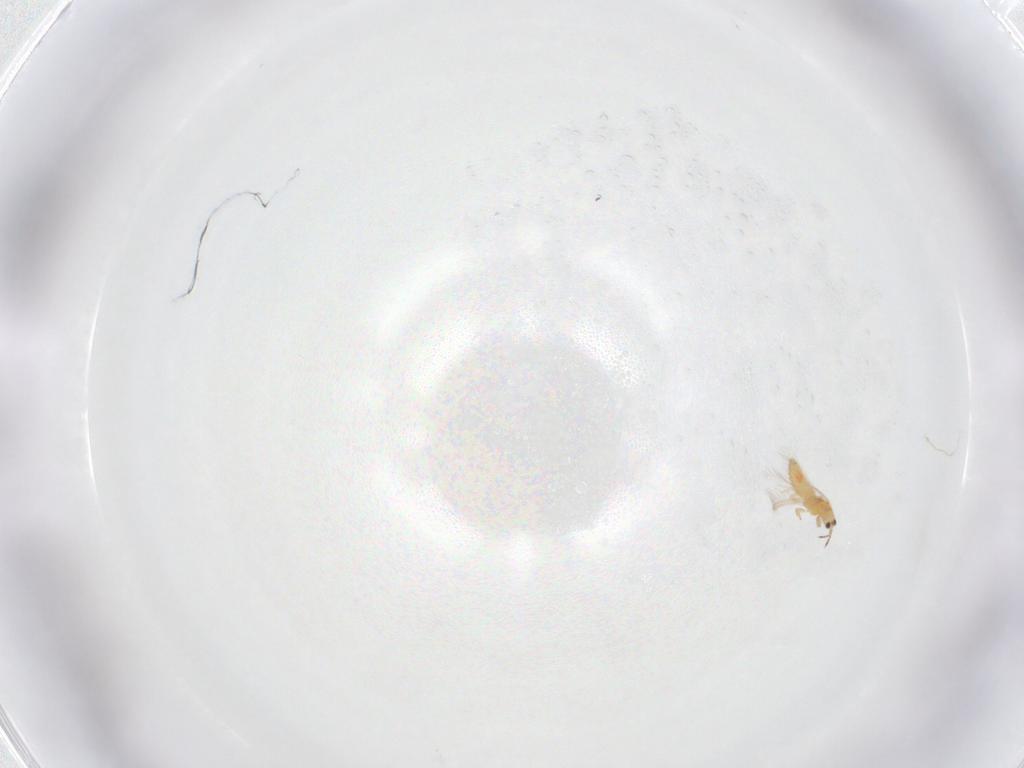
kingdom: Animalia
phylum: Arthropoda
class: Insecta
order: Thysanoptera
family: Thripidae
